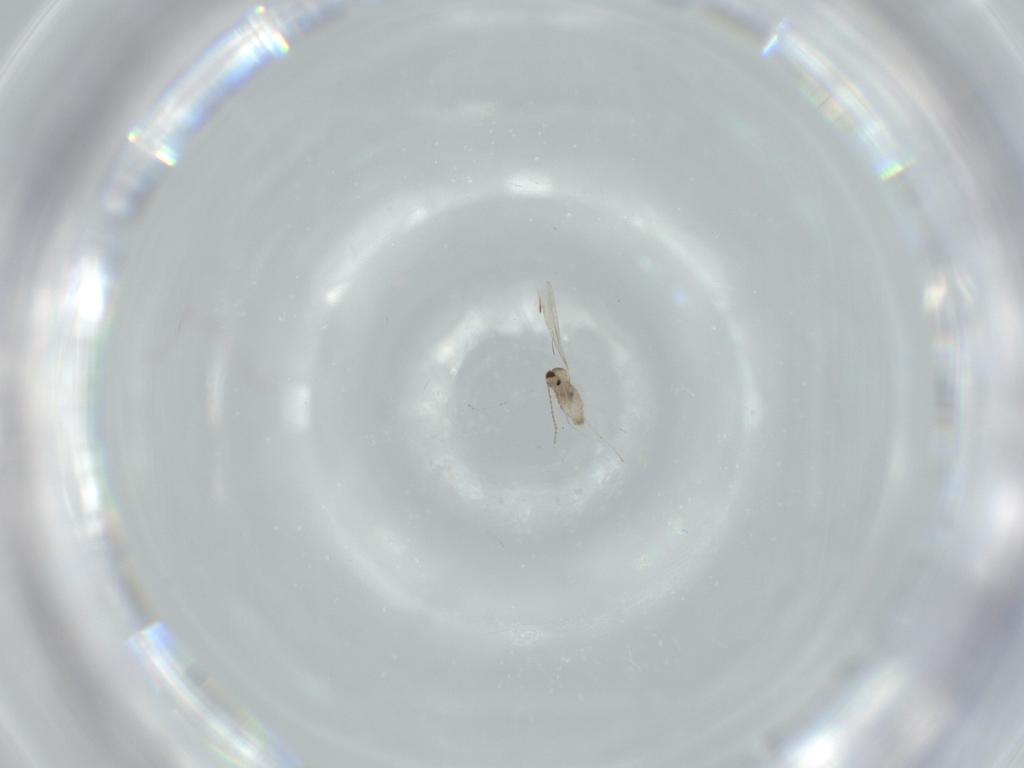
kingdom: Animalia
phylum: Arthropoda
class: Insecta
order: Diptera
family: Cecidomyiidae
